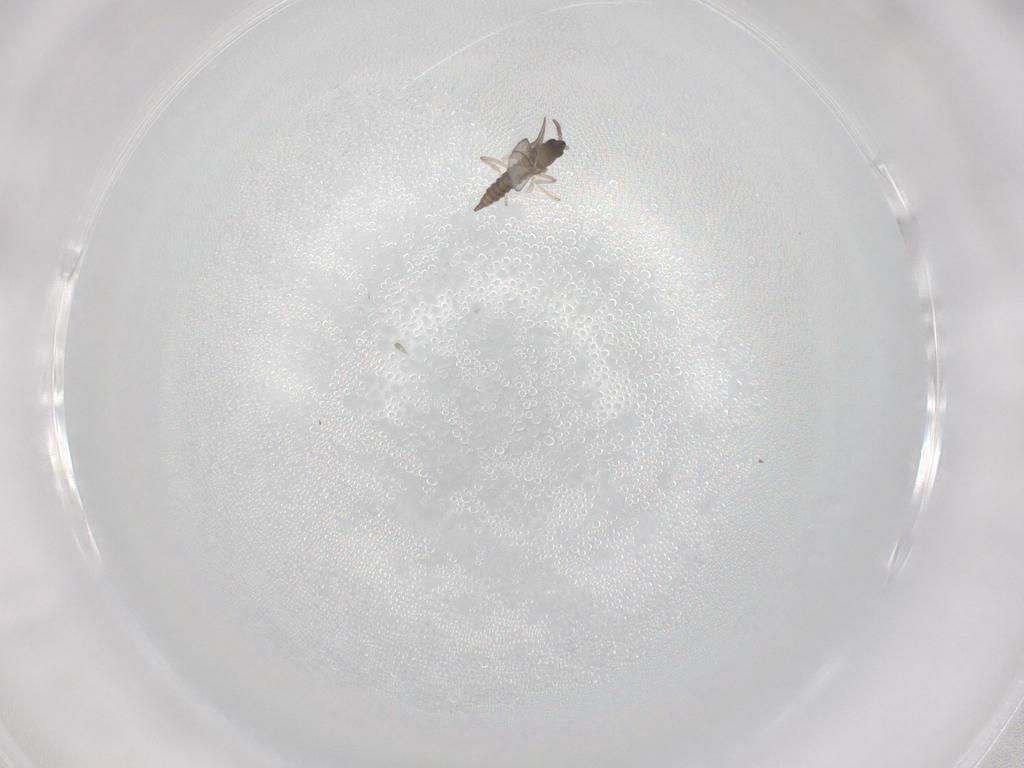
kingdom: Animalia
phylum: Arthropoda
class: Insecta
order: Diptera
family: Cecidomyiidae
